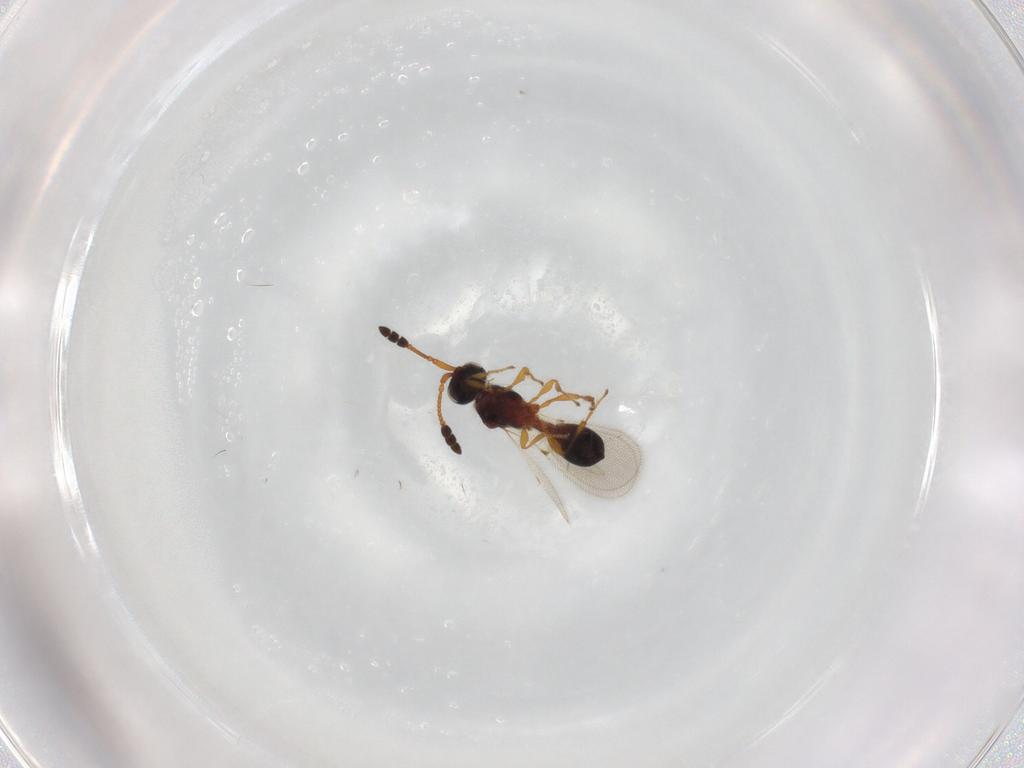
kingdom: Animalia
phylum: Arthropoda
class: Insecta
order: Hymenoptera
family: Diapriidae
